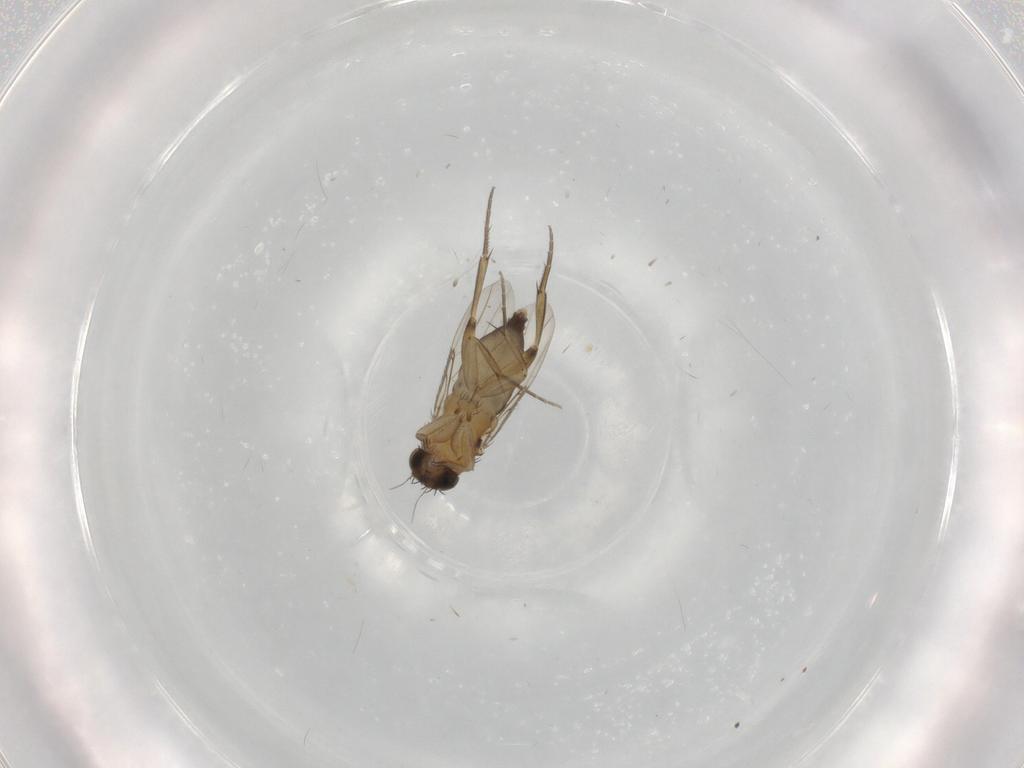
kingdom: Animalia
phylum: Arthropoda
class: Insecta
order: Diptera
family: Phoridae
